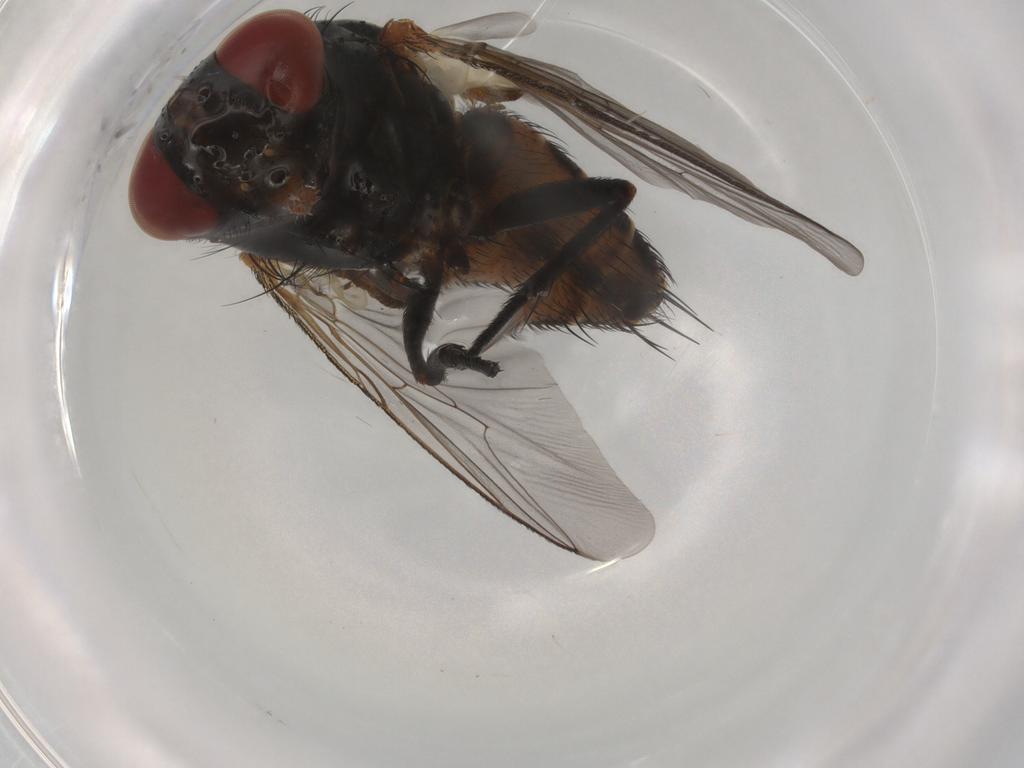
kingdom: Animalia
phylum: Arthropoda
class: Insecta
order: Diptera
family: Sarcophagidae
